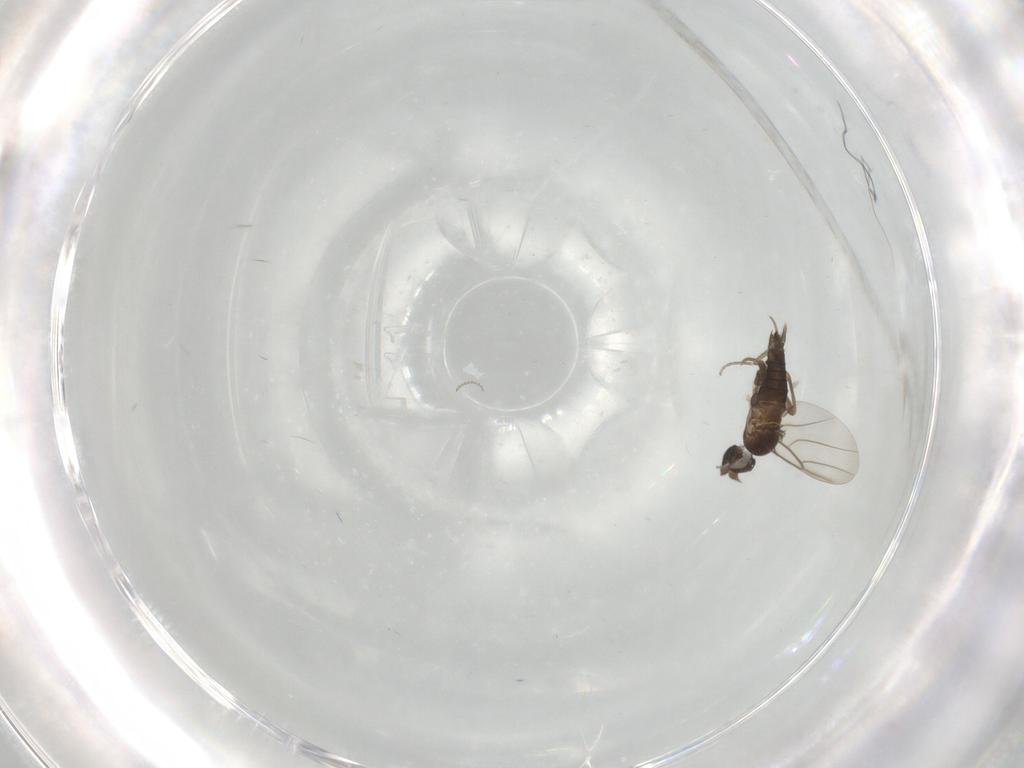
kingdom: Animalia
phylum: Arthropoda
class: Insecta
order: Diptera
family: Phoridae
